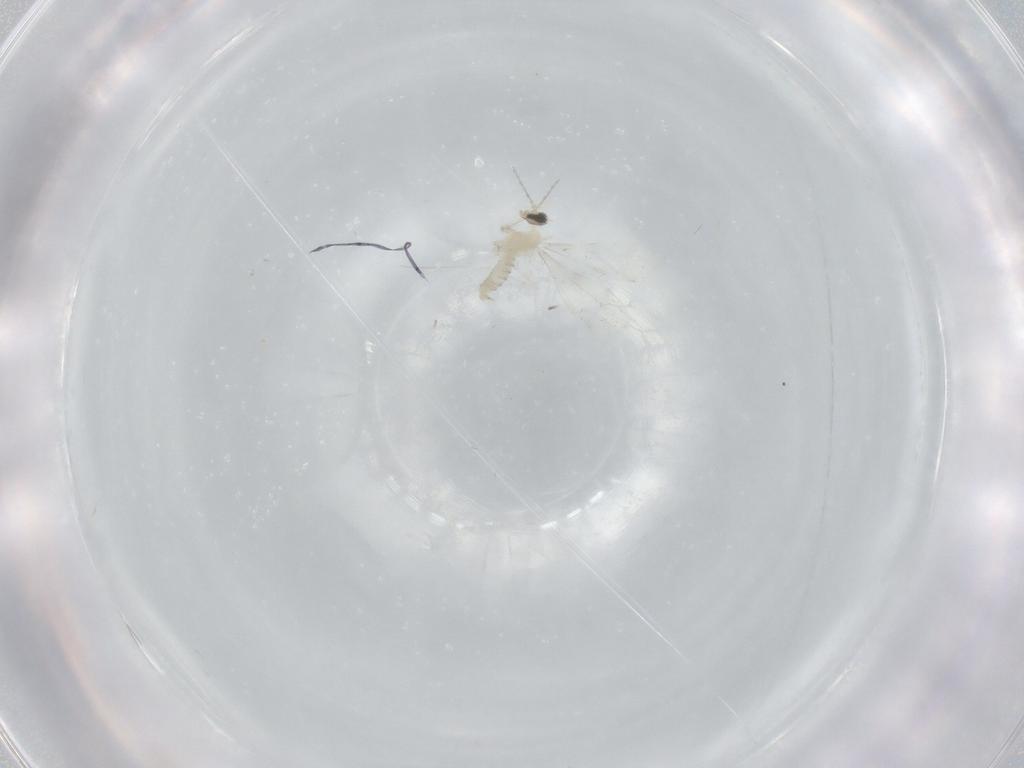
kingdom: Animalia
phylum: Arthropoda
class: Insecta
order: Diptera
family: Cecidomyiidae
